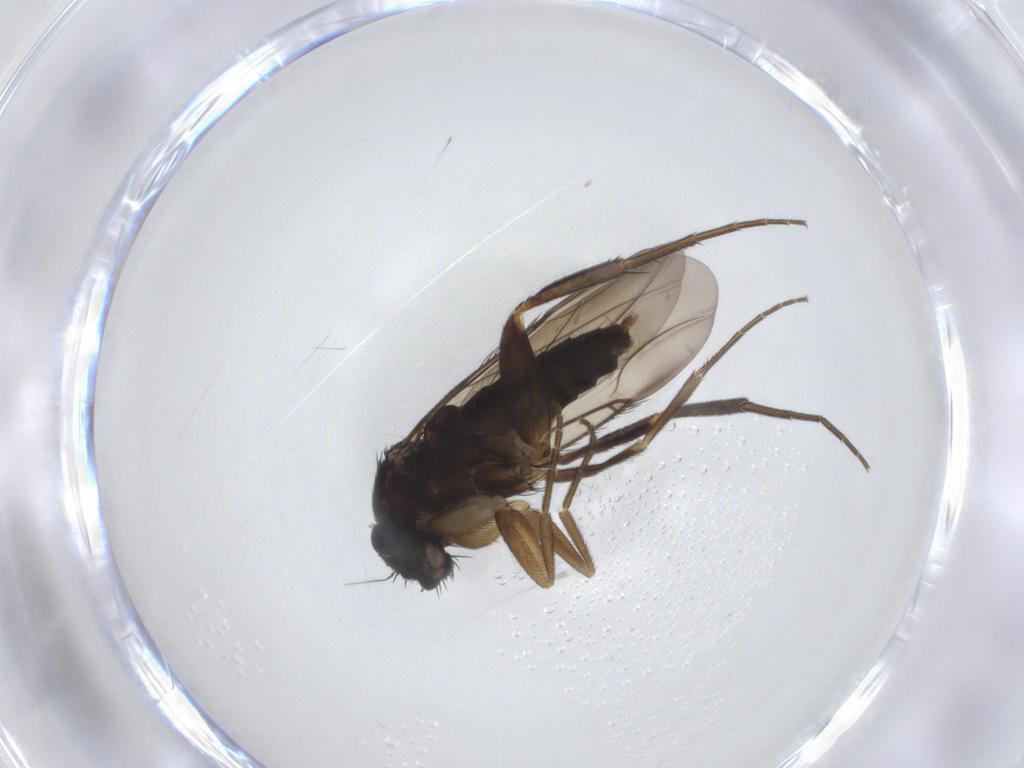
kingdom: Animalia
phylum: Arthropoda
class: Insecta
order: Diptera
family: Phoridae
